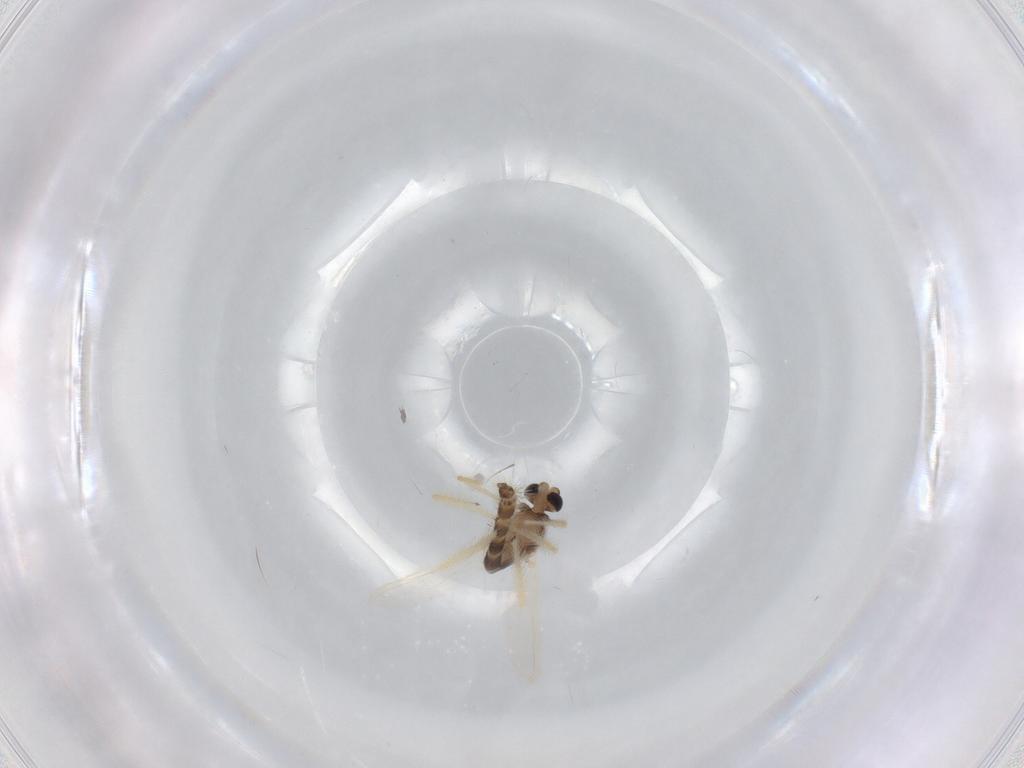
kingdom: Animalia
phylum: Arthropoda
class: Insecta
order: Diptera
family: Chironomidae
